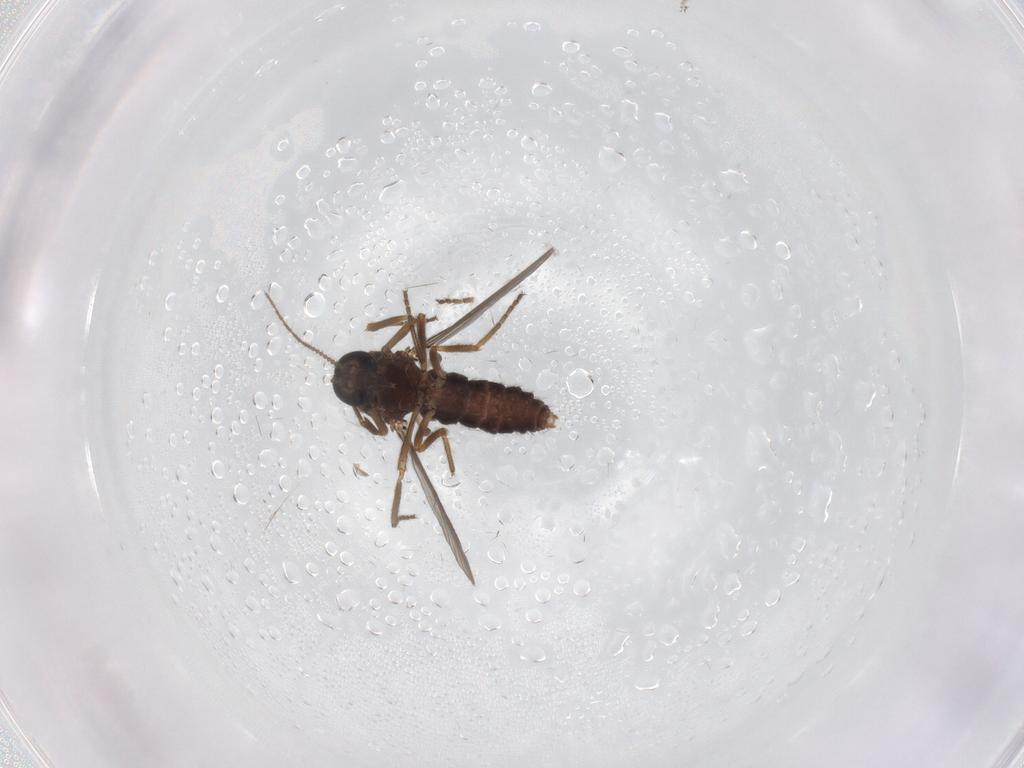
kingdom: Animalia
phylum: Arthropoda
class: Insecta
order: Diptera
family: Ceratopogonidae
